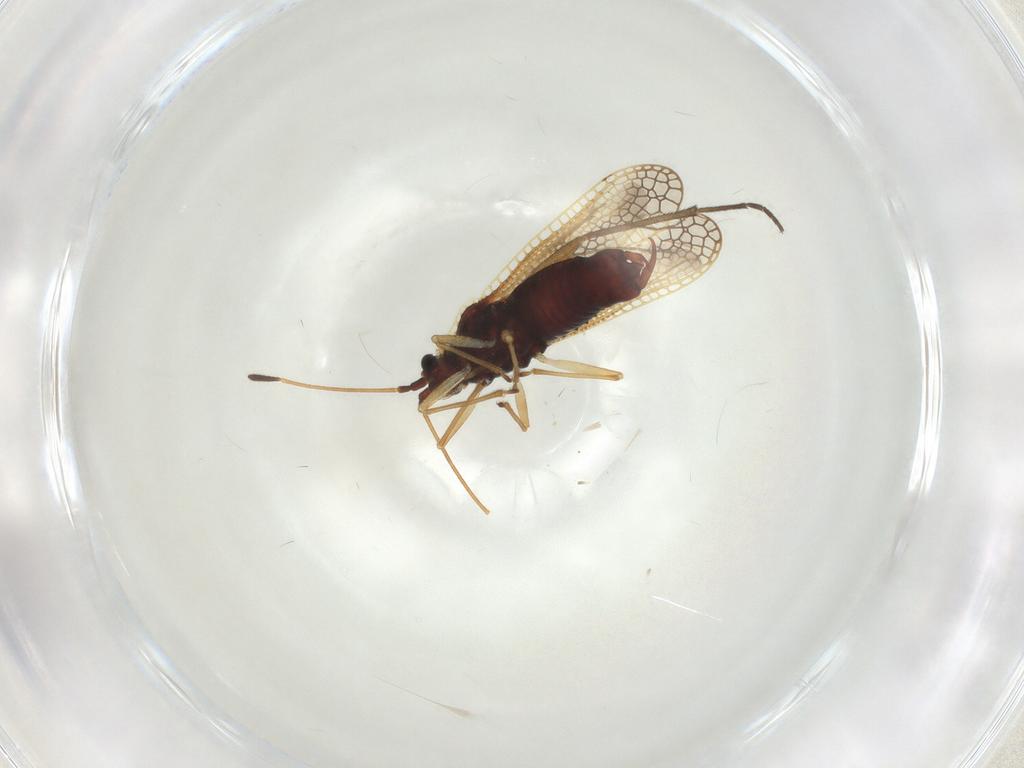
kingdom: Animalia
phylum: Arthropoda
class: Insecta
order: Hemiptera
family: Tingidae
